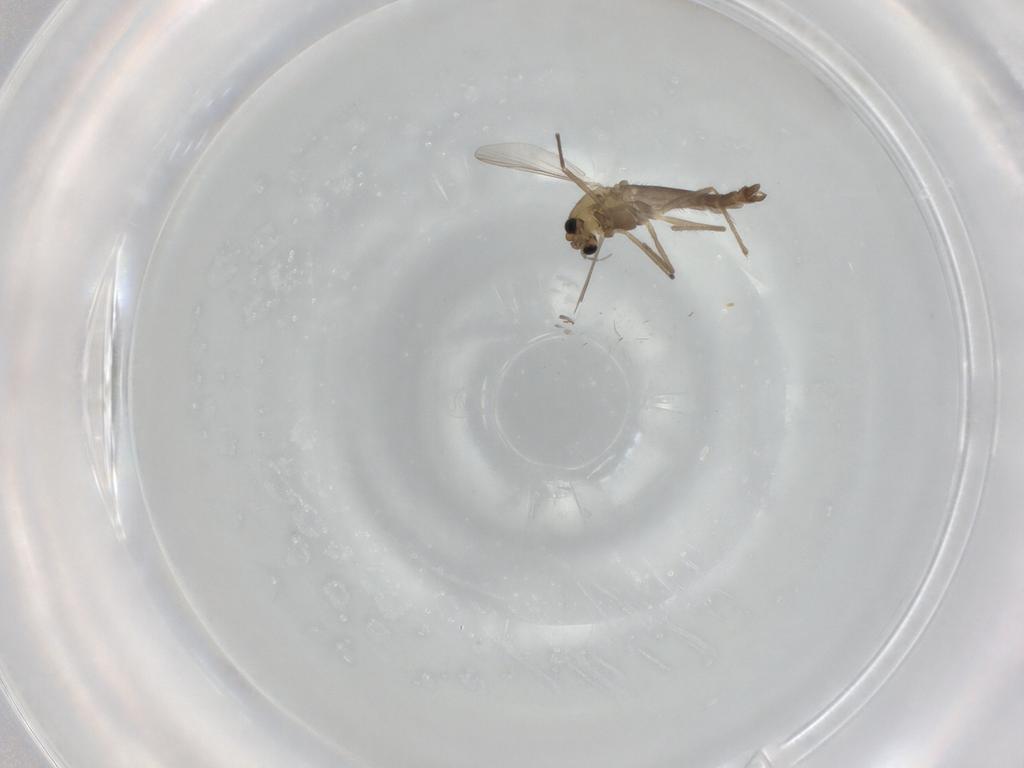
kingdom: Animalia
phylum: Arthropoda
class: Insecta
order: Diptera
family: Chironomidae
